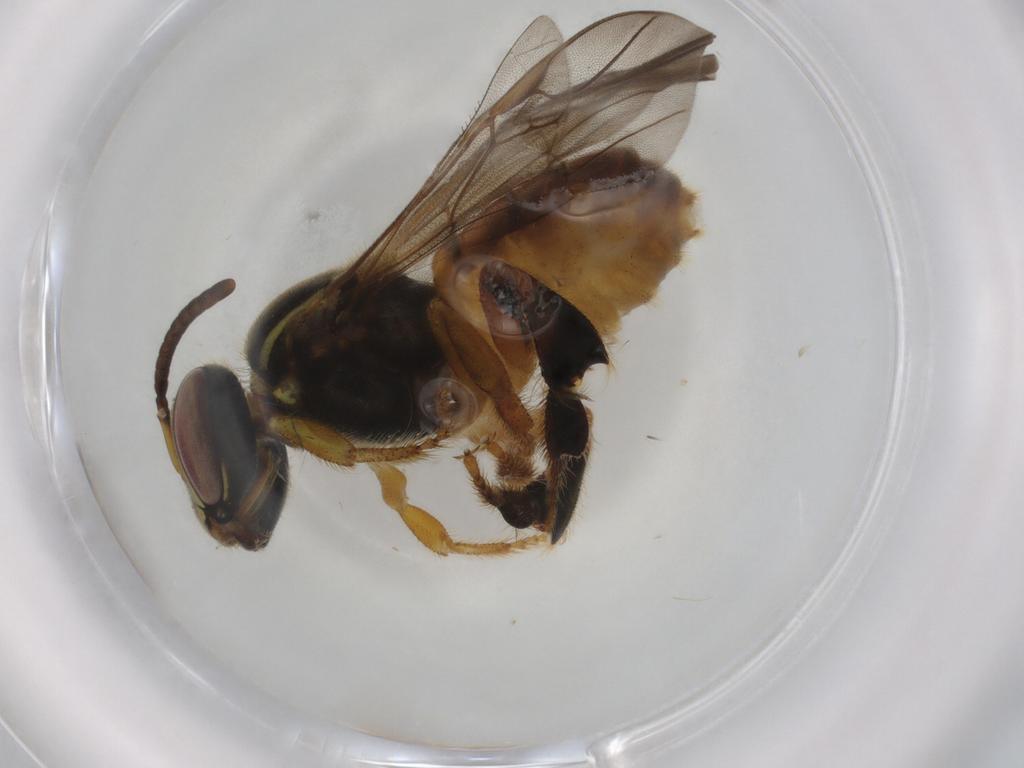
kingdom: Animalia
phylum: Arthropoda
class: Insecta
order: Hymenoptera
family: Apidae
